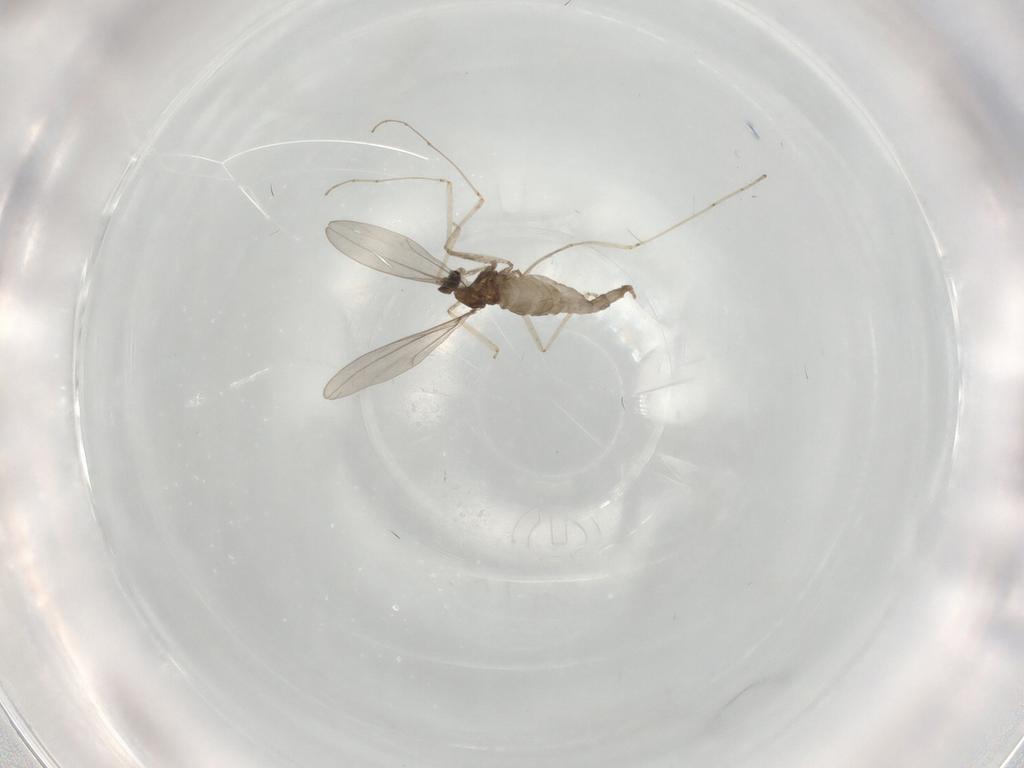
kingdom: Animalia
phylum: Arthropoda
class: Insecta
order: Diptera
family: Cecidomyiidae
